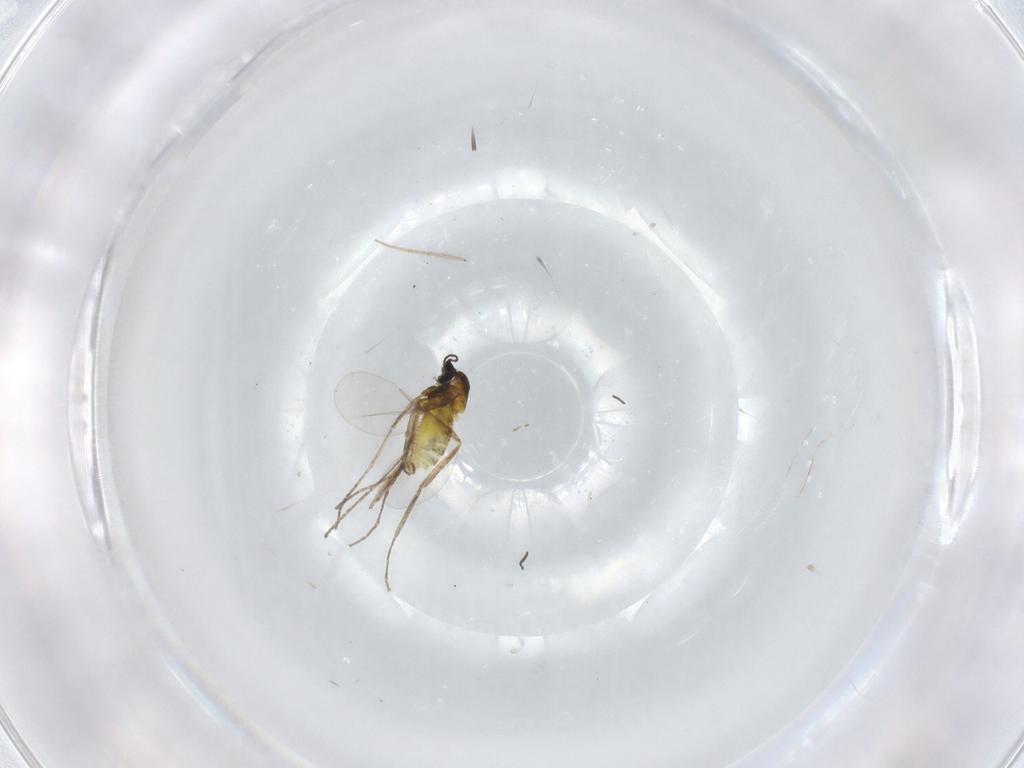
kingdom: Animalia
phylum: Arthropoda
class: Insecta
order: Diptera
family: Cecidomyiidae
